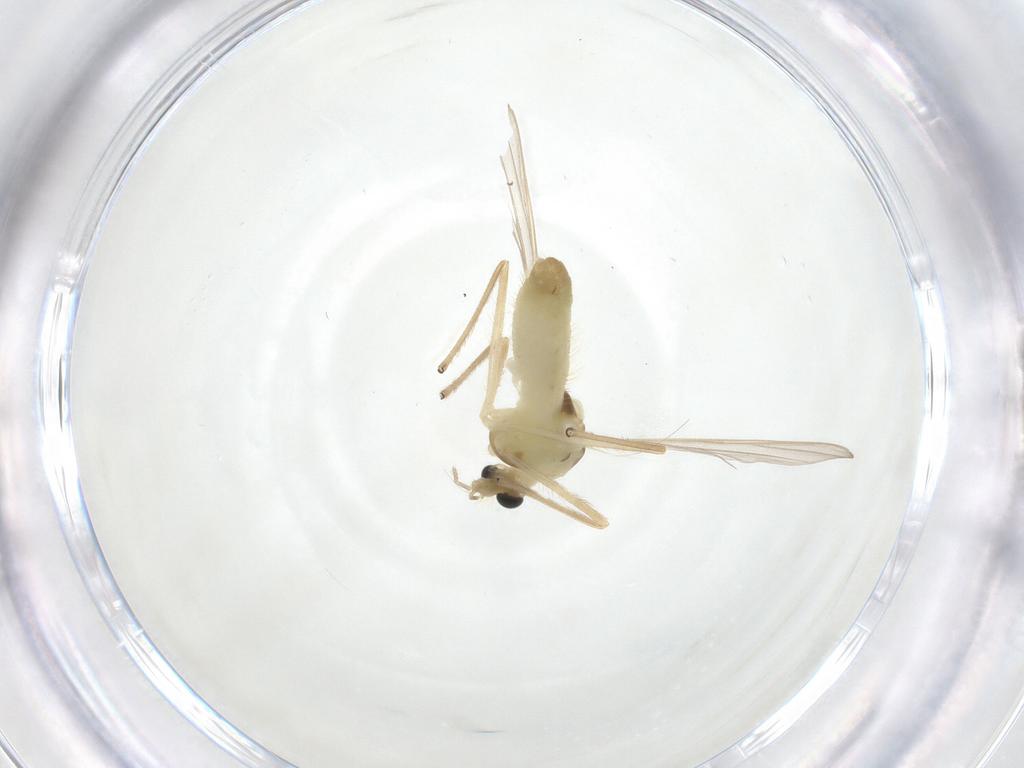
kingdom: Animalia
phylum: Arthropoda
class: Insecta
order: Diptera
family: Chironomidae
